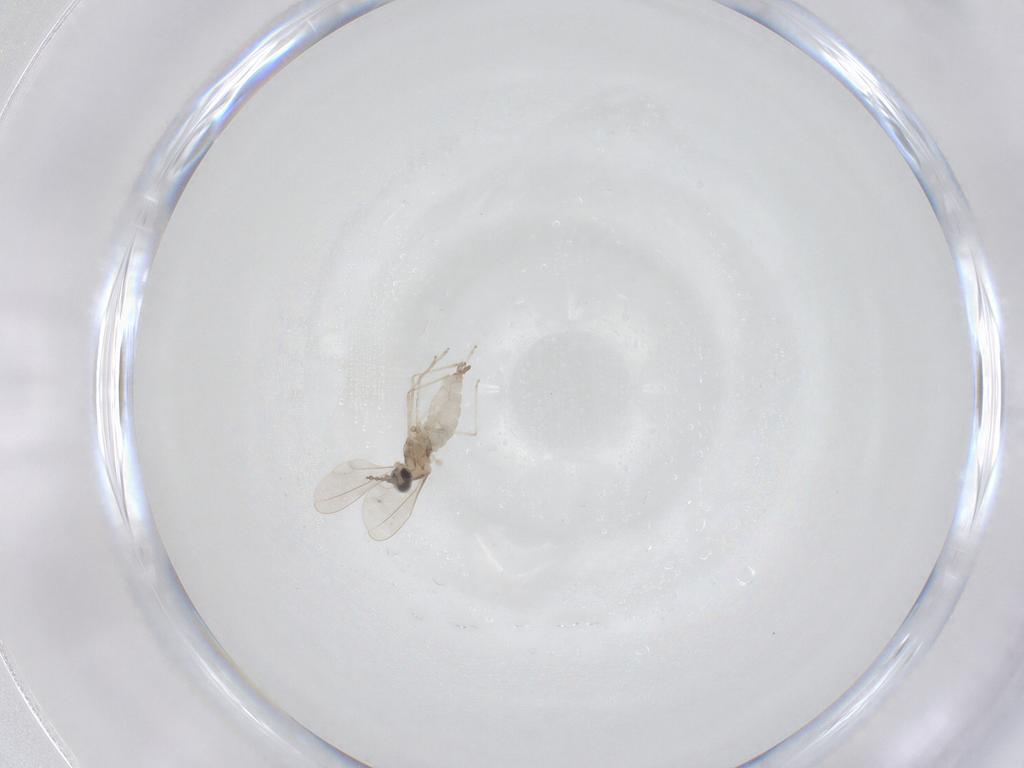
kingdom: Animalia
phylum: Arthropoda
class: Insecta
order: Diptera
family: Cecidomyiidae
